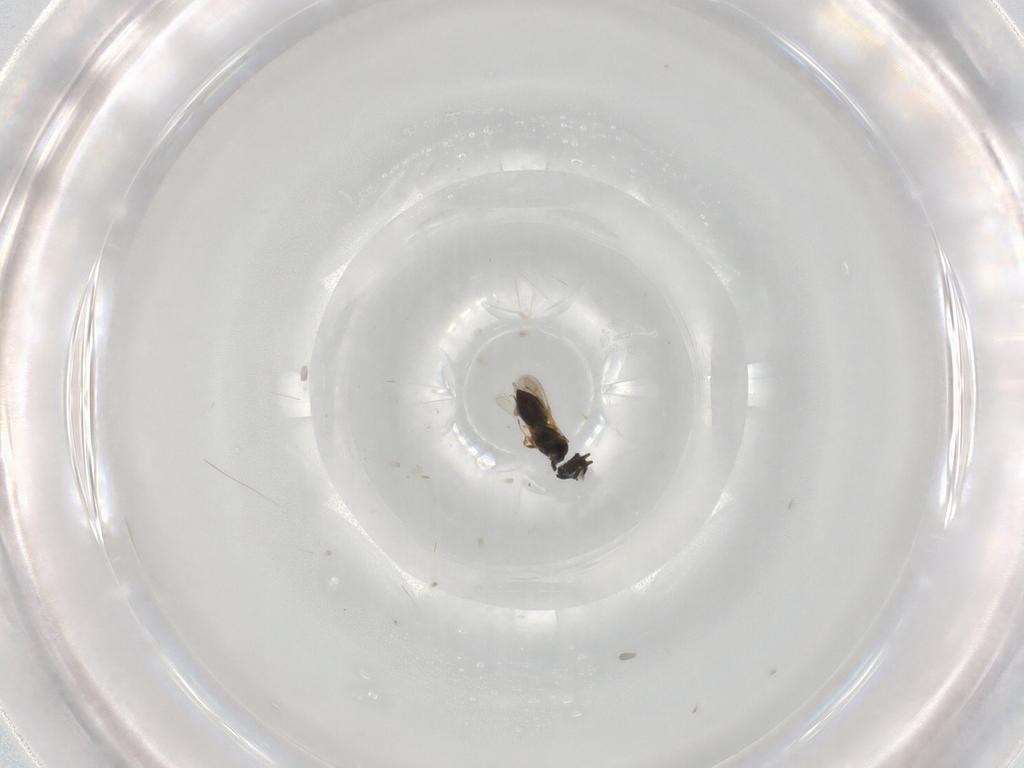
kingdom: Animalia
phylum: Arthropoda
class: Insecta
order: Hymenoptera
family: Scelionidae
